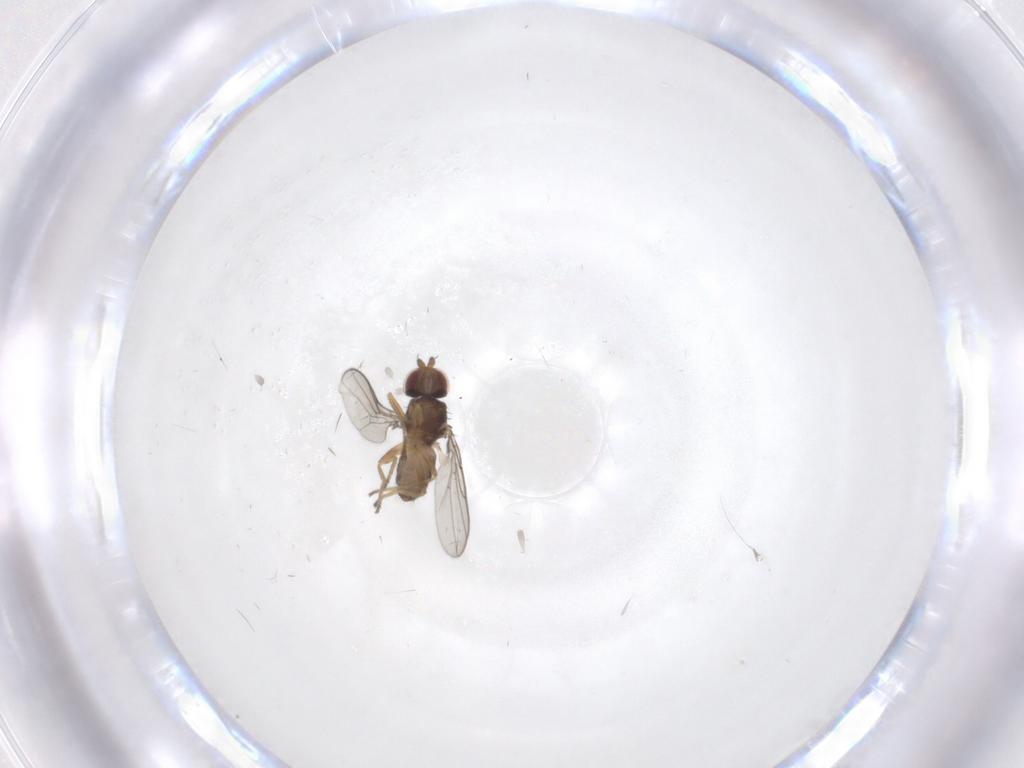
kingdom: Animalia
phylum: Arthropoda
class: Insecta
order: Diptera
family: Chloropidae
